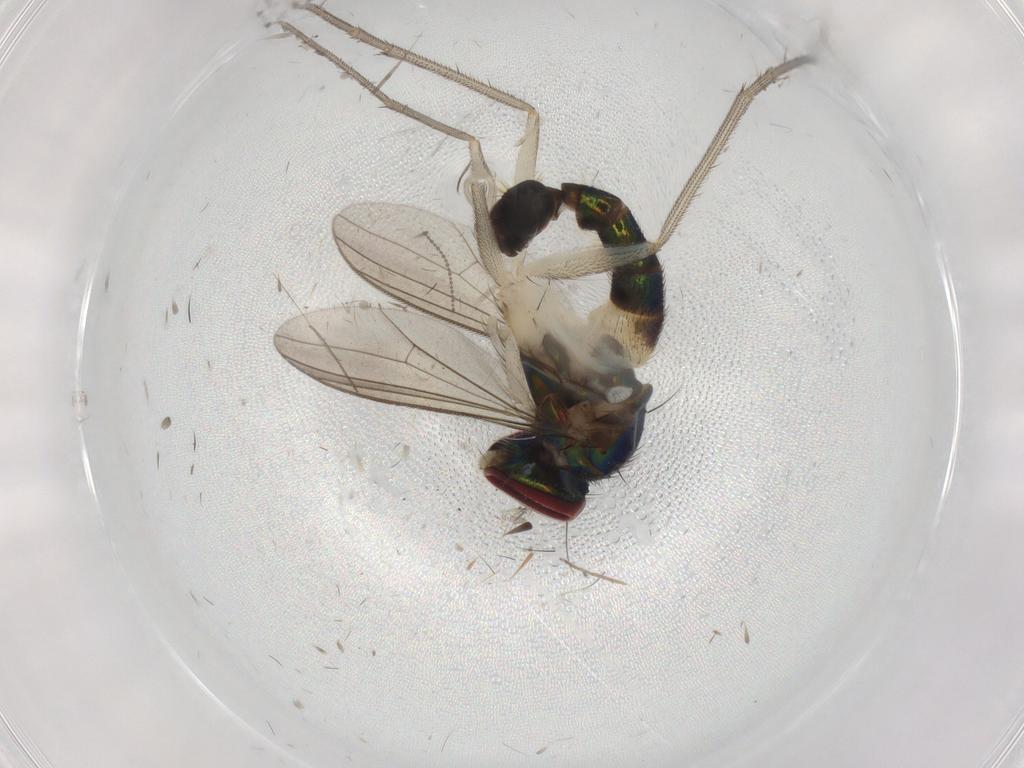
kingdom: Animalia
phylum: Arthropoda
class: Insecta
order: Diptera
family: Dolichopodidae
